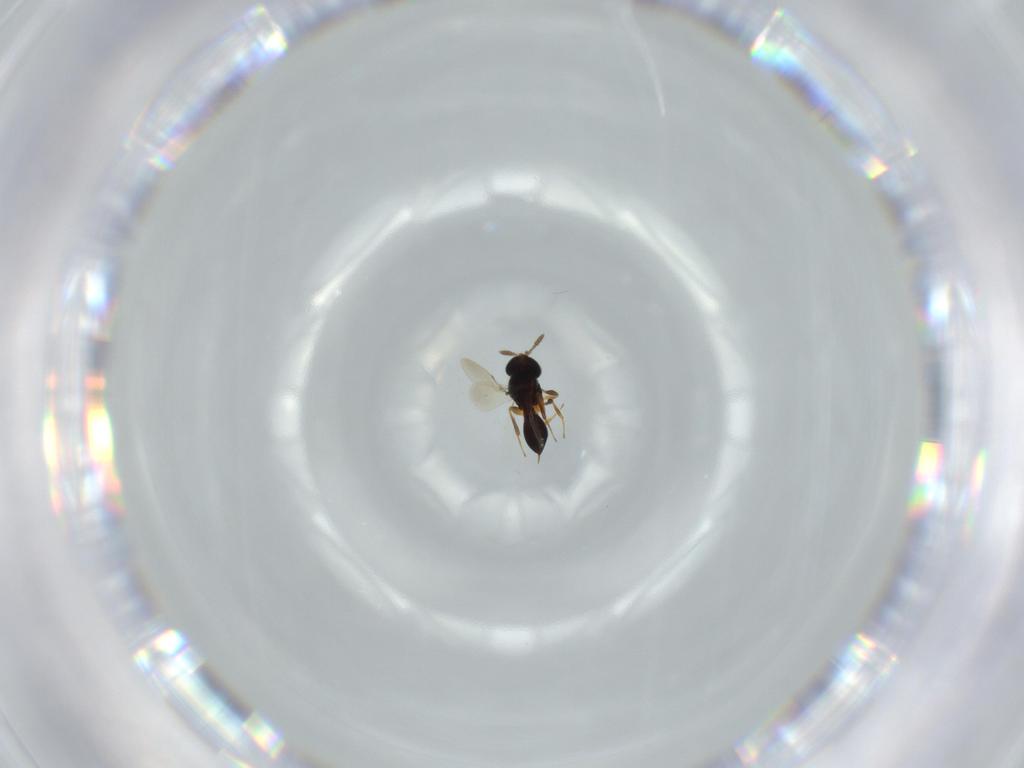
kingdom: Animalia
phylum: Arthropoda
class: Insecta
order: Hymenoptera
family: Platygastridae
